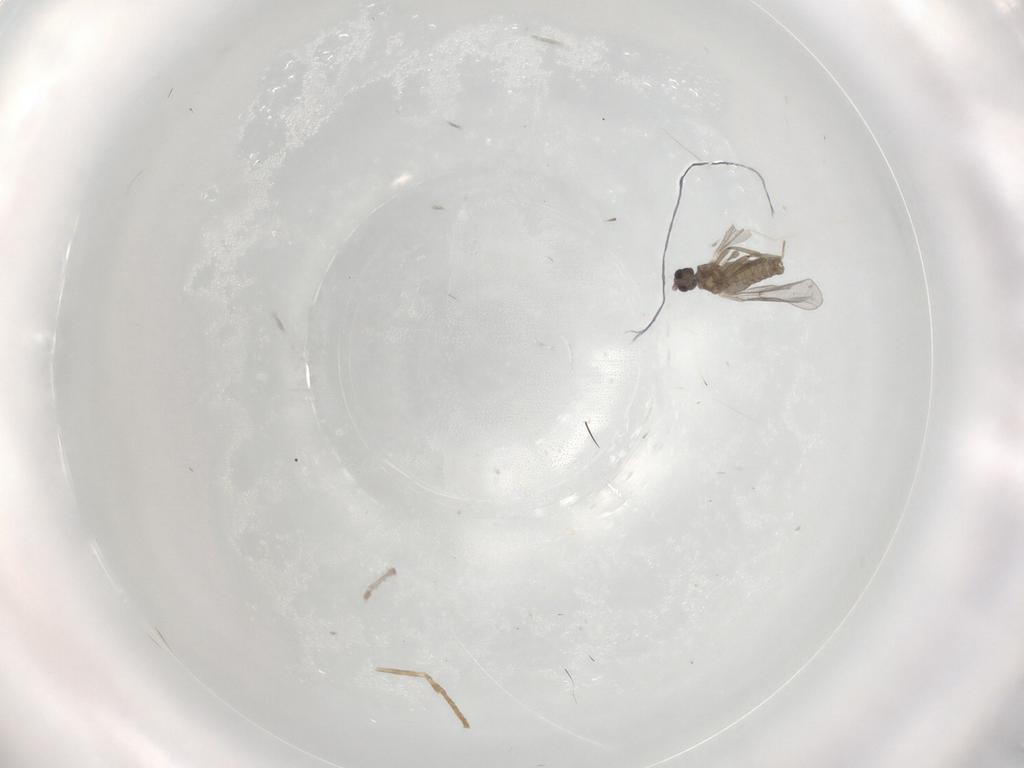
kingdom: Animalia
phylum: Arthropoda
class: Insecta
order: Diptera
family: Cecidomyiidae
